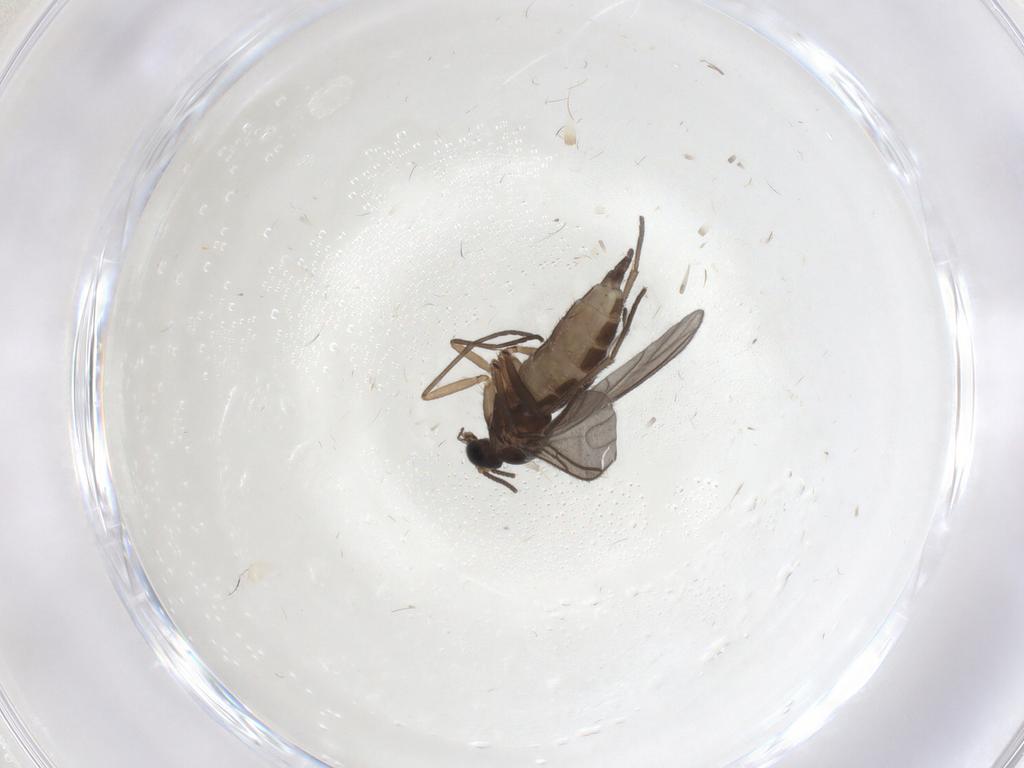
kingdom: Animalia
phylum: Arthropoda
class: Insecta
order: Diptera
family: Sciaridae
